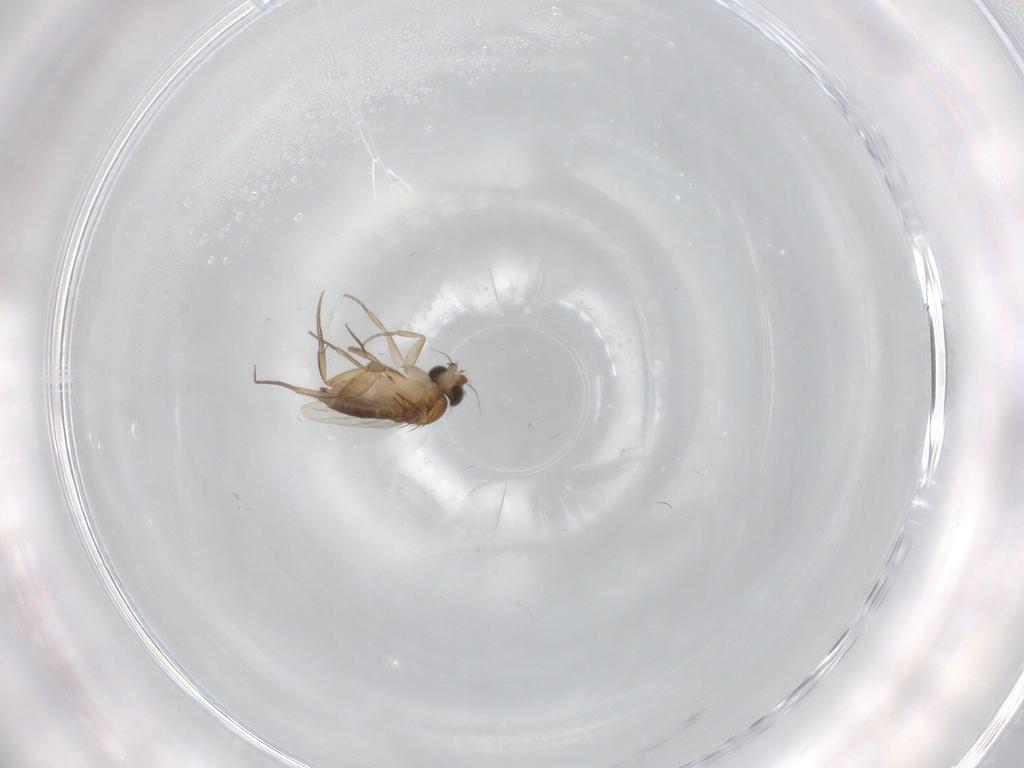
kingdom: Animalia
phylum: Arthropoda
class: Insecta
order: Diptera
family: Phoridae
